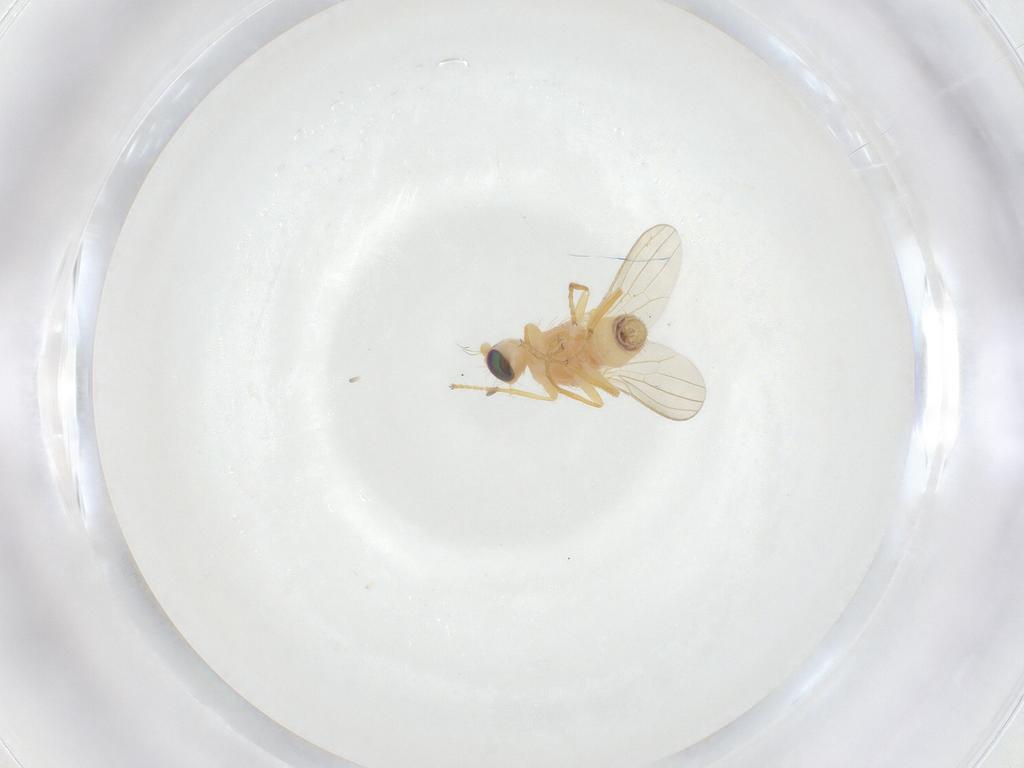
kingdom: Animalia
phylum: Arthropoda
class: Insecta
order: Diptera
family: Chyromyidae
